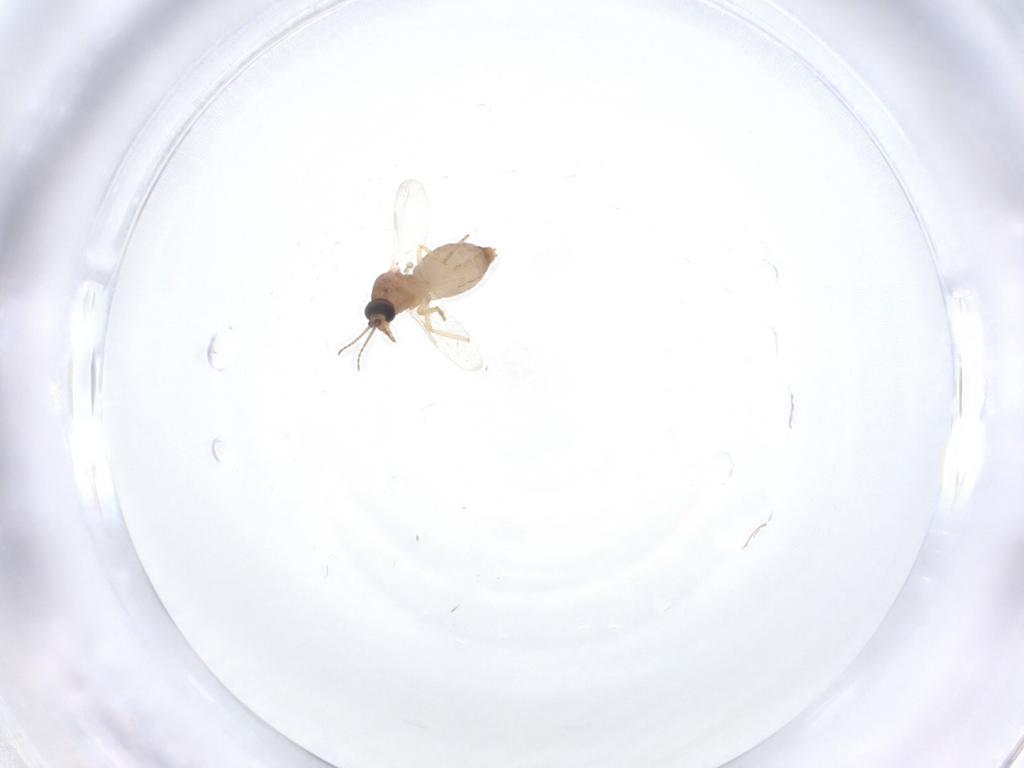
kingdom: Animalia
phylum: Arthropoda
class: Insecta
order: Diptera
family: Ceratopogonidae
